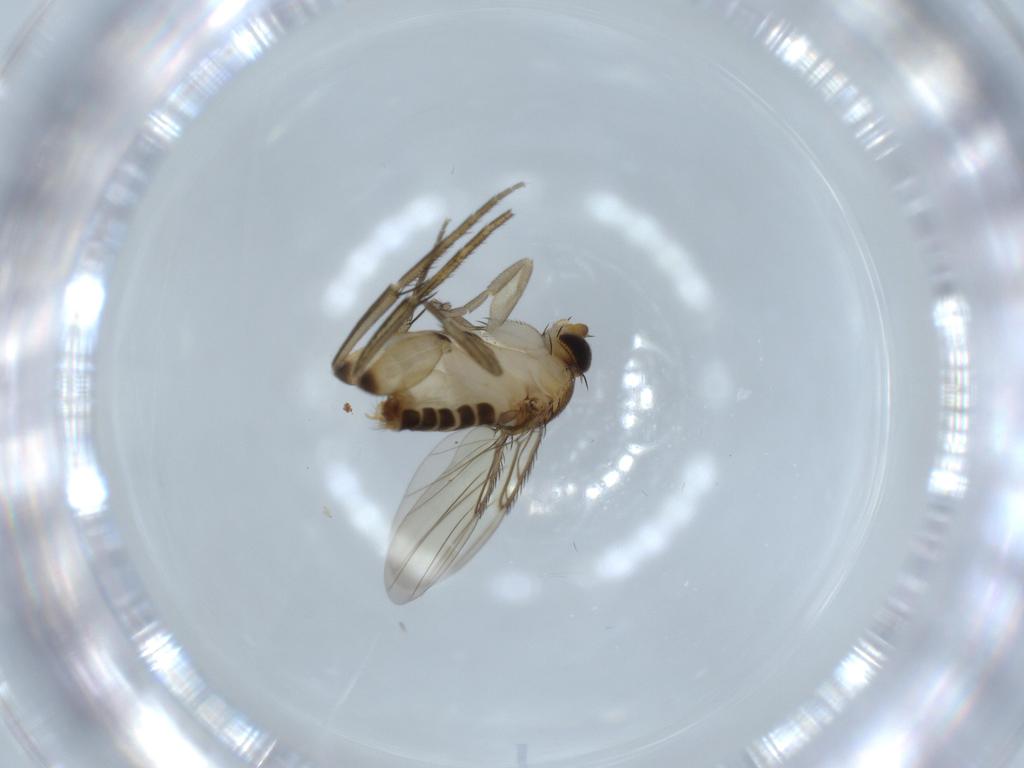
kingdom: Animalia
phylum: Arthropoda
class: Insecta
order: Diptera
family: Phoridae
